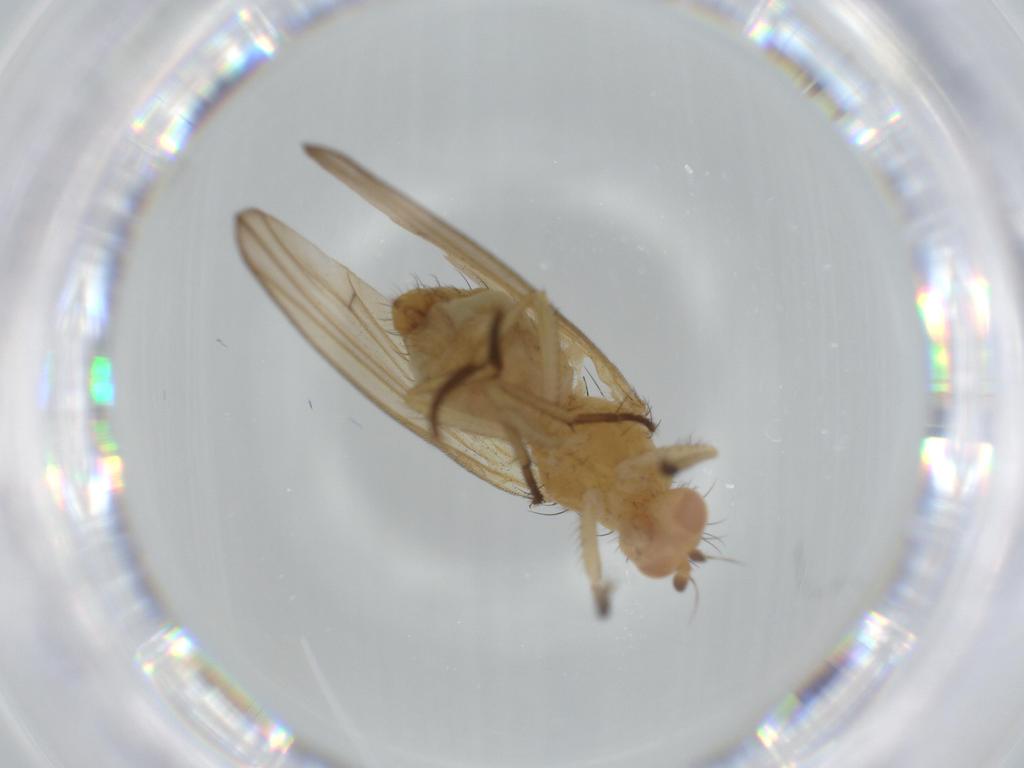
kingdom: Animalia
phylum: Arthropoda
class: Insecta
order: Diptera
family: Lauxaniidae
